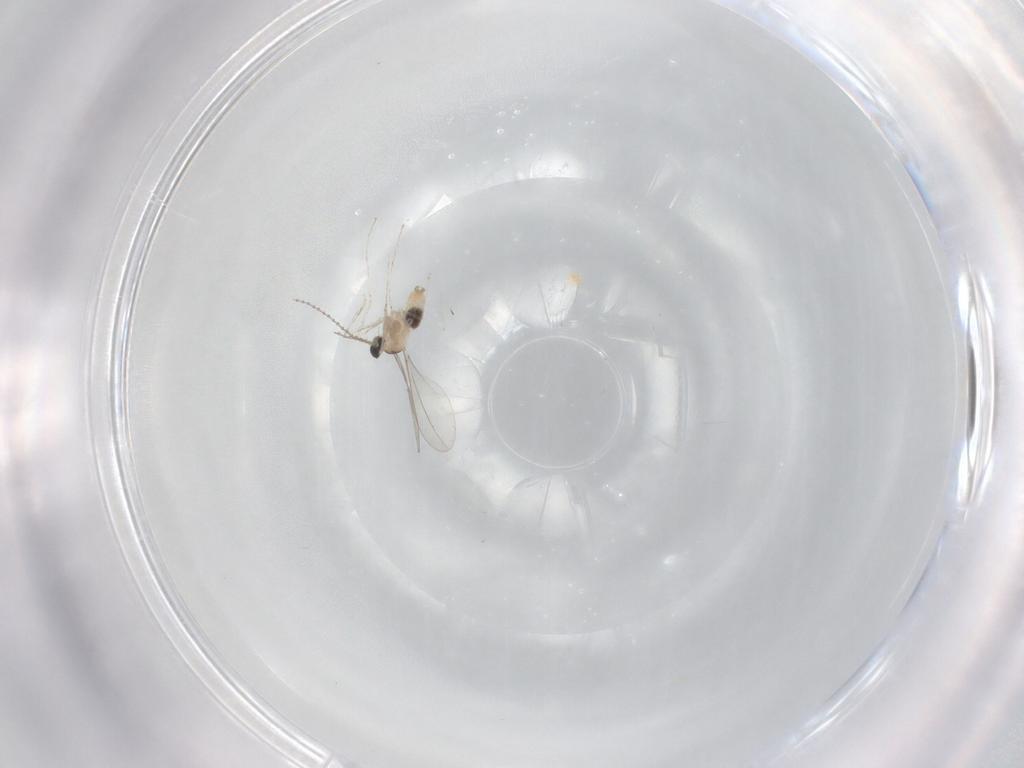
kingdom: Animalia
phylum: Arthropoda
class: Insecta
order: Diptera
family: Cecidomyiidae
